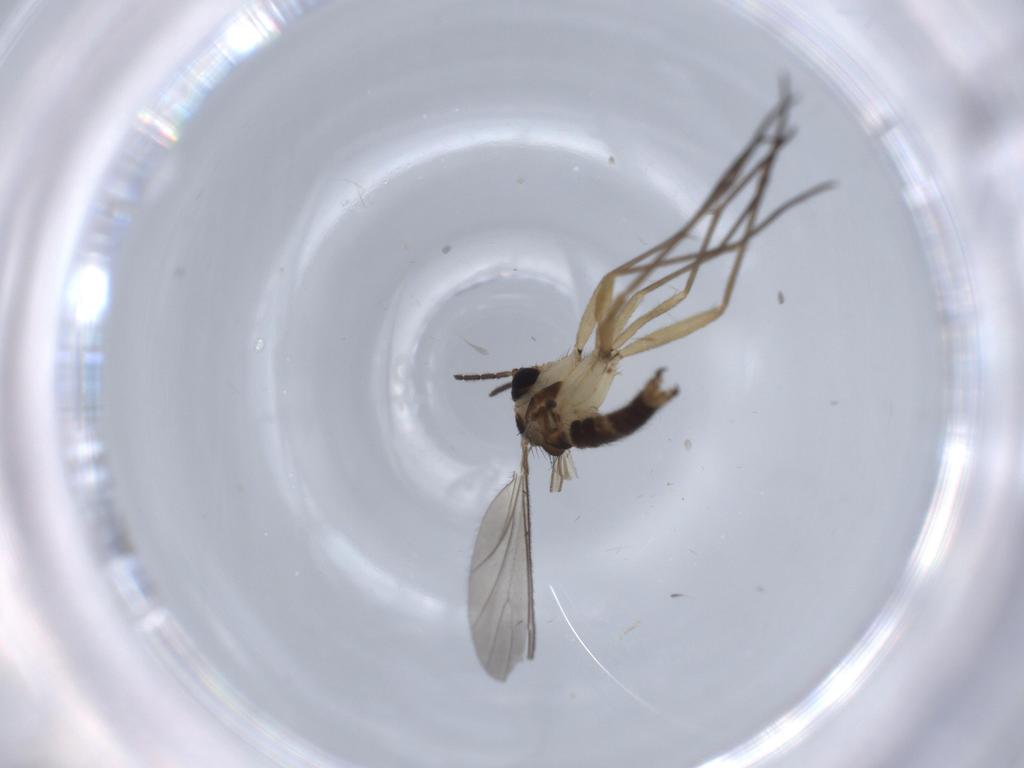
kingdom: Animalia
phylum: Arthropoda
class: Insecta
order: Diptera
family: Sciaridae
